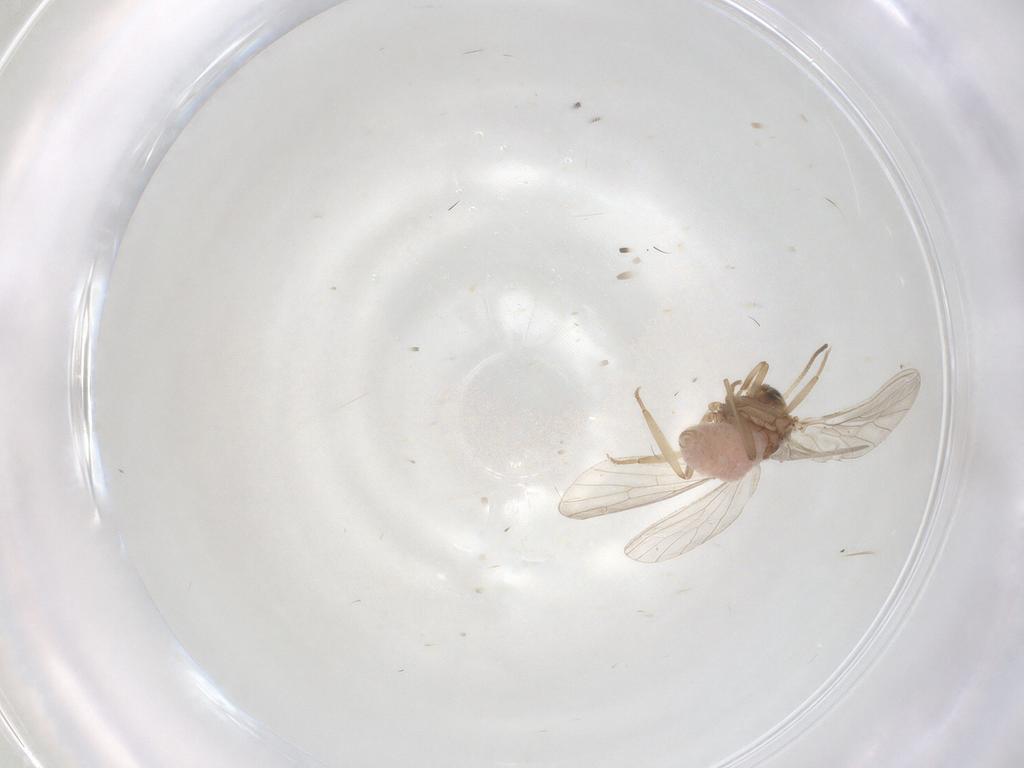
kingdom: Animalia
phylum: Arthropoda
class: Insecta
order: Neuroptera
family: Coniopterygidae
